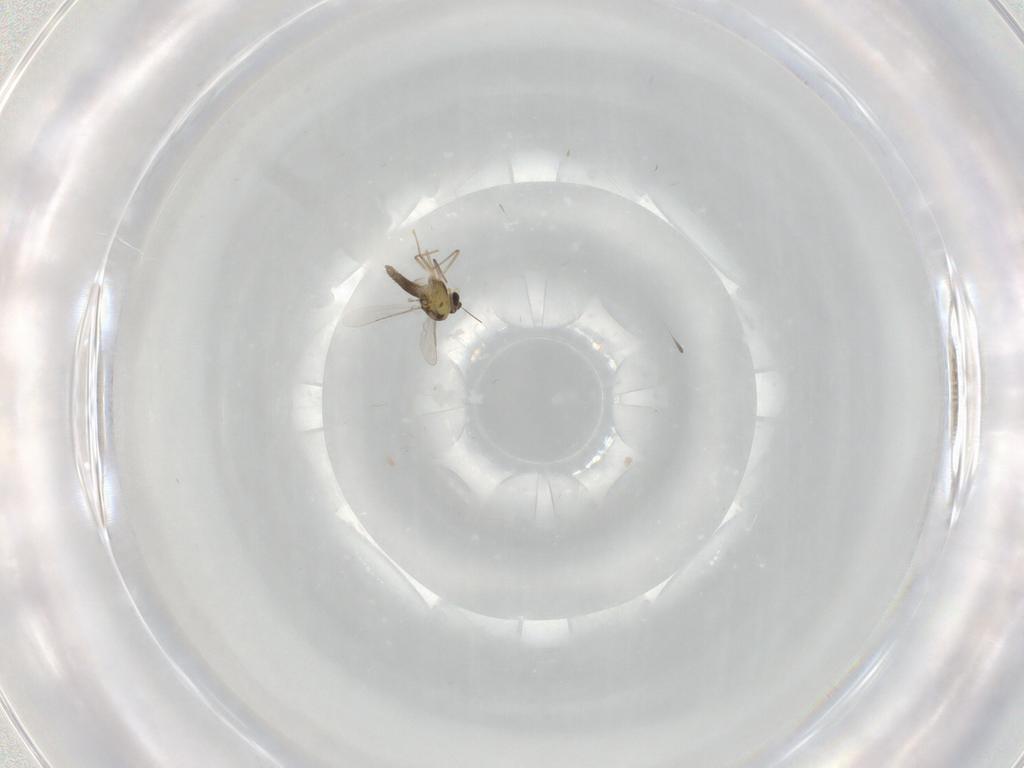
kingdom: Animalia
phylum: Arthropoda
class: Insecta
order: Diptera
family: Chironomidae
